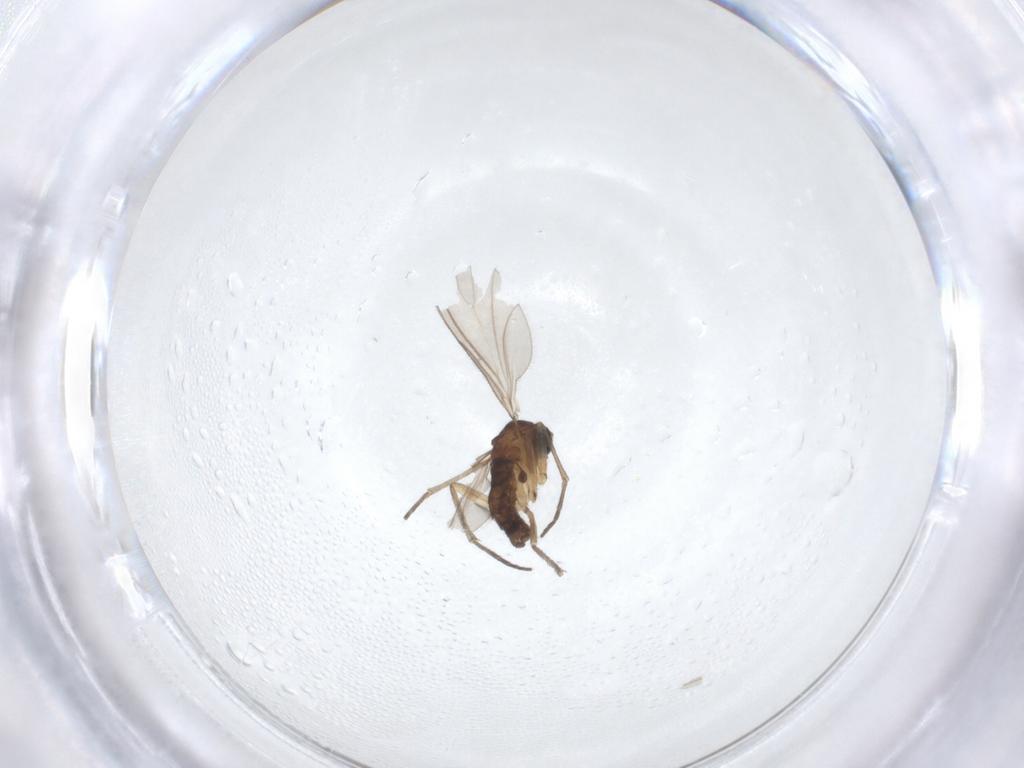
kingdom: Animalia
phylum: Arthropoda
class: Insecta
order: Diptera
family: Sciaridae
